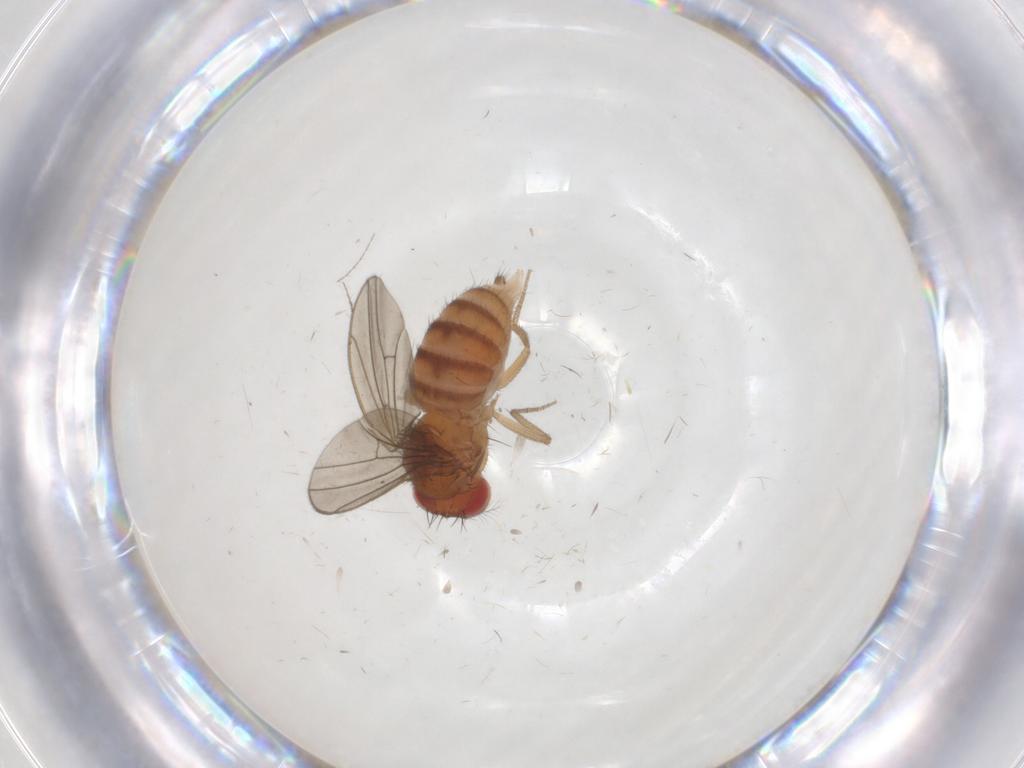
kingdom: Animalia
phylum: Arthropoda
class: Insecta
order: Diptera
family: Drosophilidae
